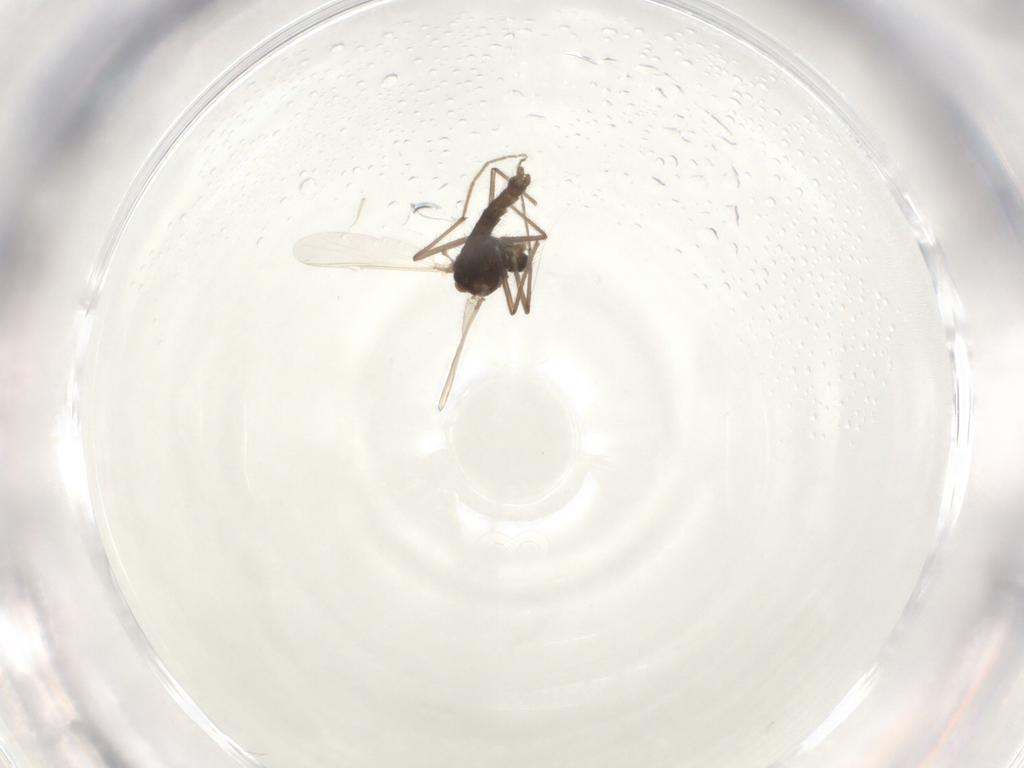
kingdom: Animalia
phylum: Arthropoda
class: Insecta
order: Diptera
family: Chironomidae
